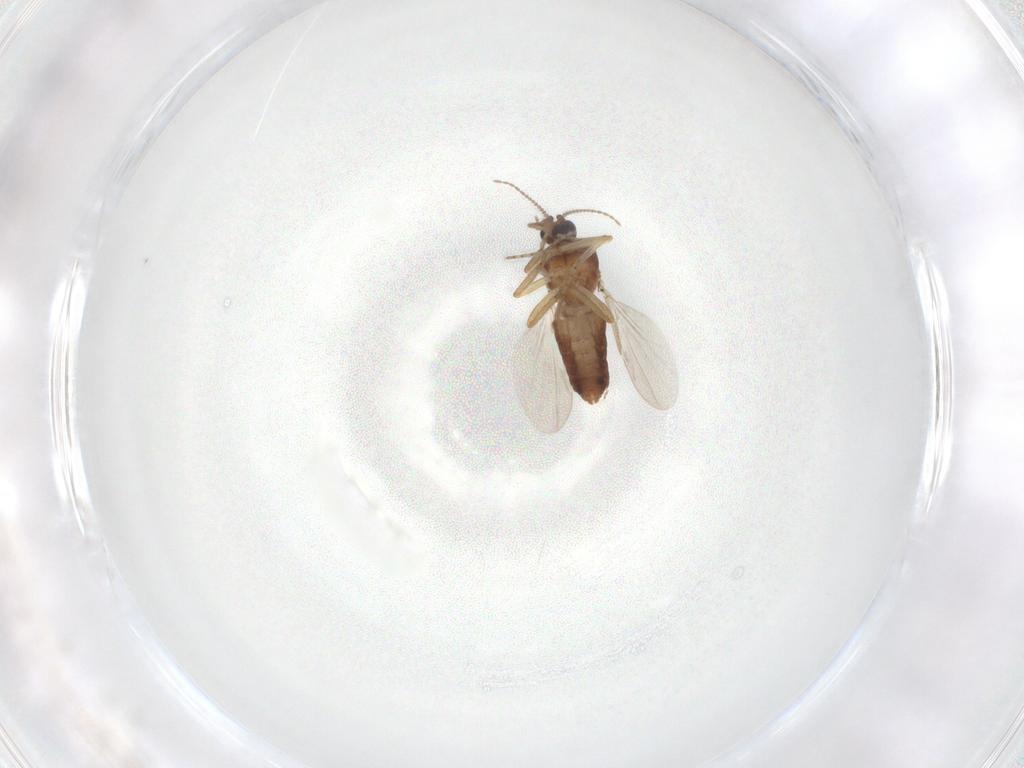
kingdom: Animalia
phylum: Arthropoda
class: Insecta
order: Diptera
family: Ceratopogonidae
